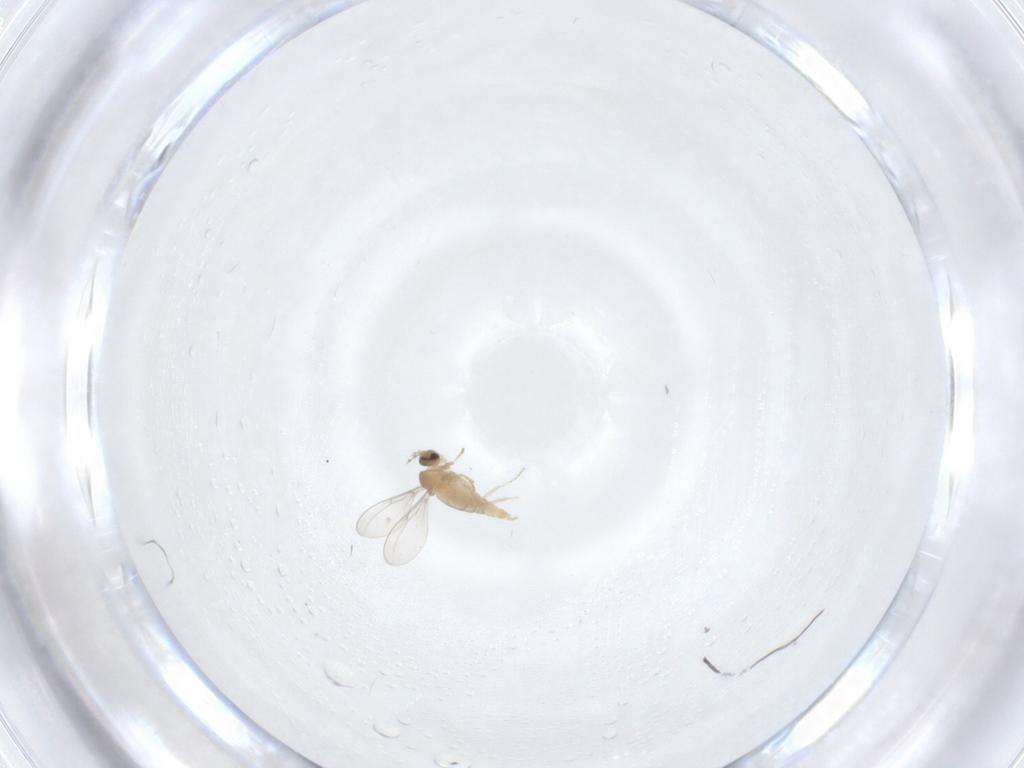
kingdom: Animalia
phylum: Arthropoda
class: Insecta
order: Diptera
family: Cecidomyiidae
